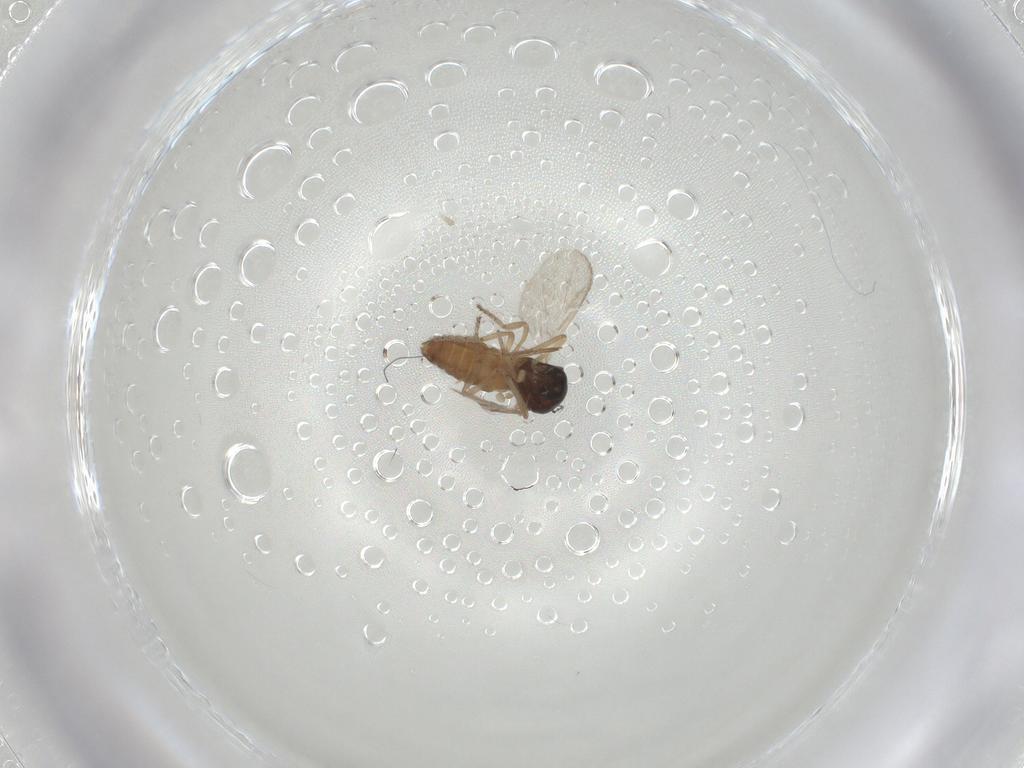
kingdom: Animalia
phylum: Arthropoda
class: Insecta
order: Diptera
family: Ceratopogonidae
